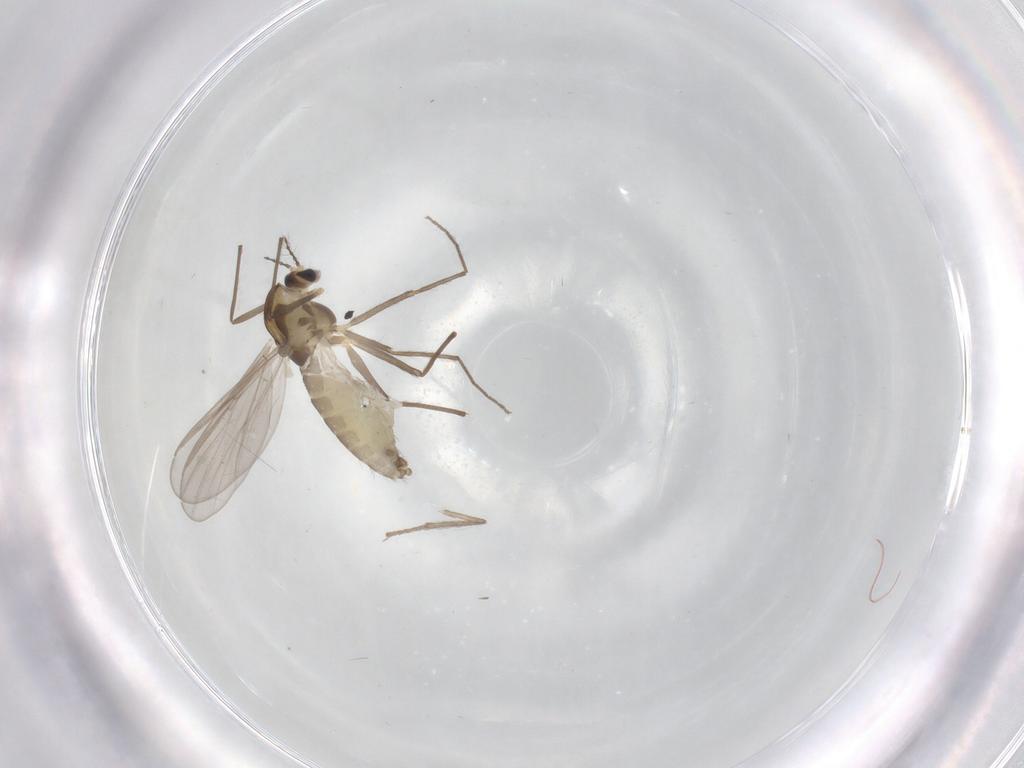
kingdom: Animalia
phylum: Arthropoda
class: Insecta
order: Diptera
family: Chironomidae
